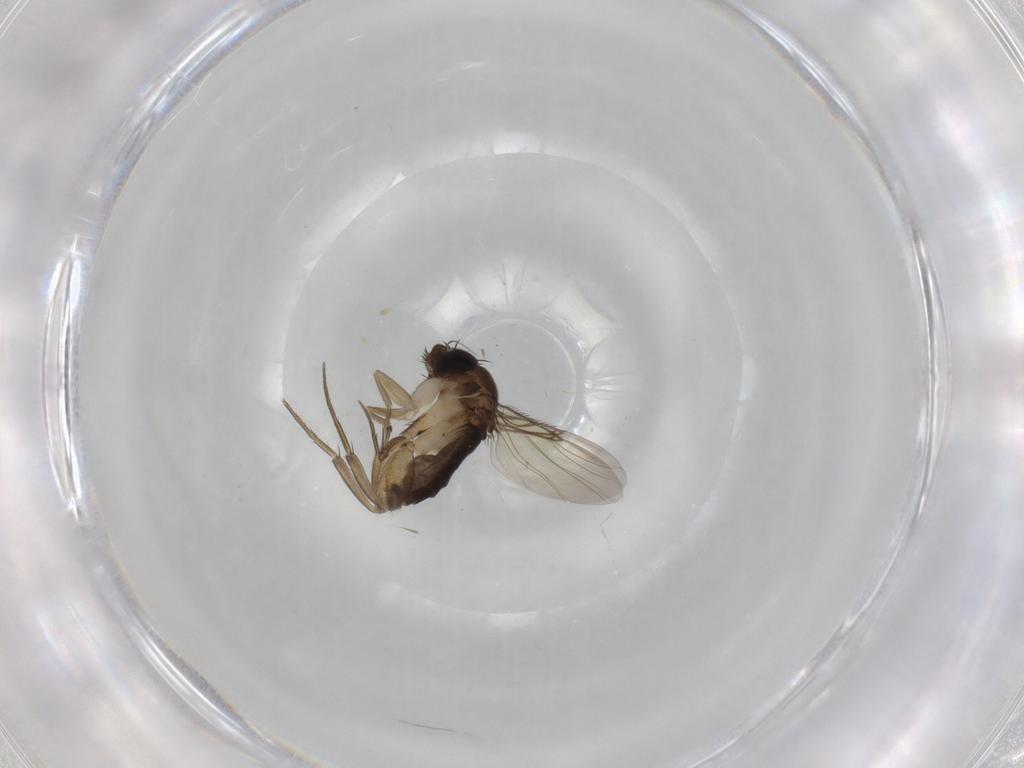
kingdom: Animalia
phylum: Arthropoda
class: Insecta
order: Diptera
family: Phoridae
